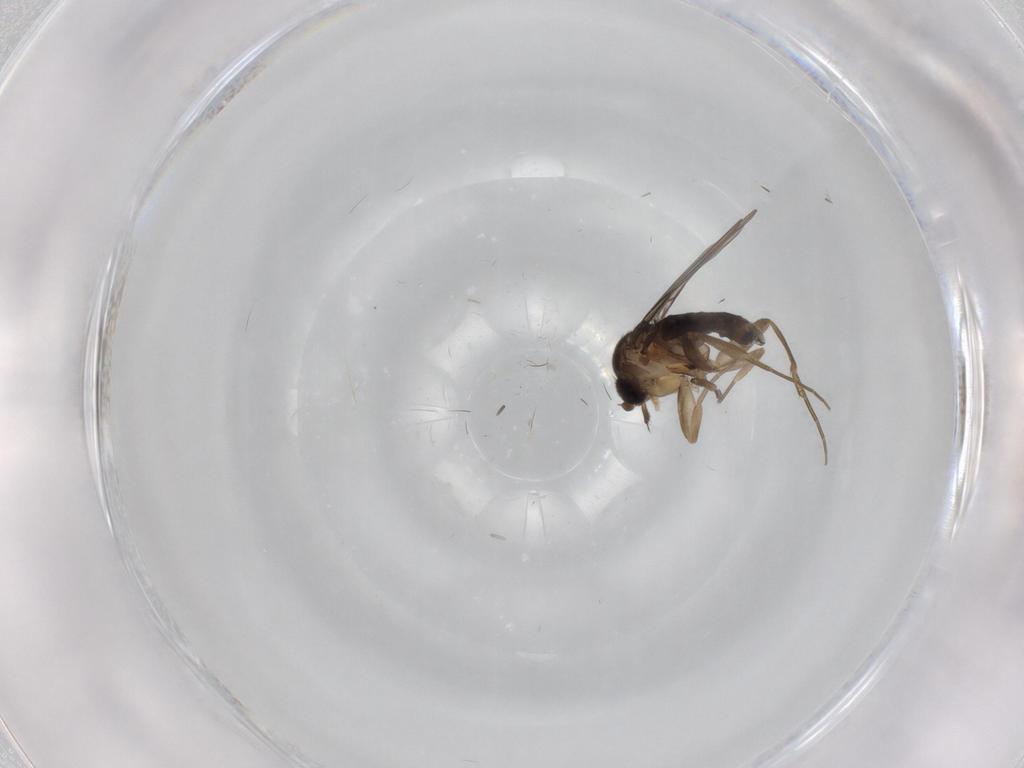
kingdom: Animalia
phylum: Arthropoda
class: Insecta
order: Diptera
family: Phoridae
